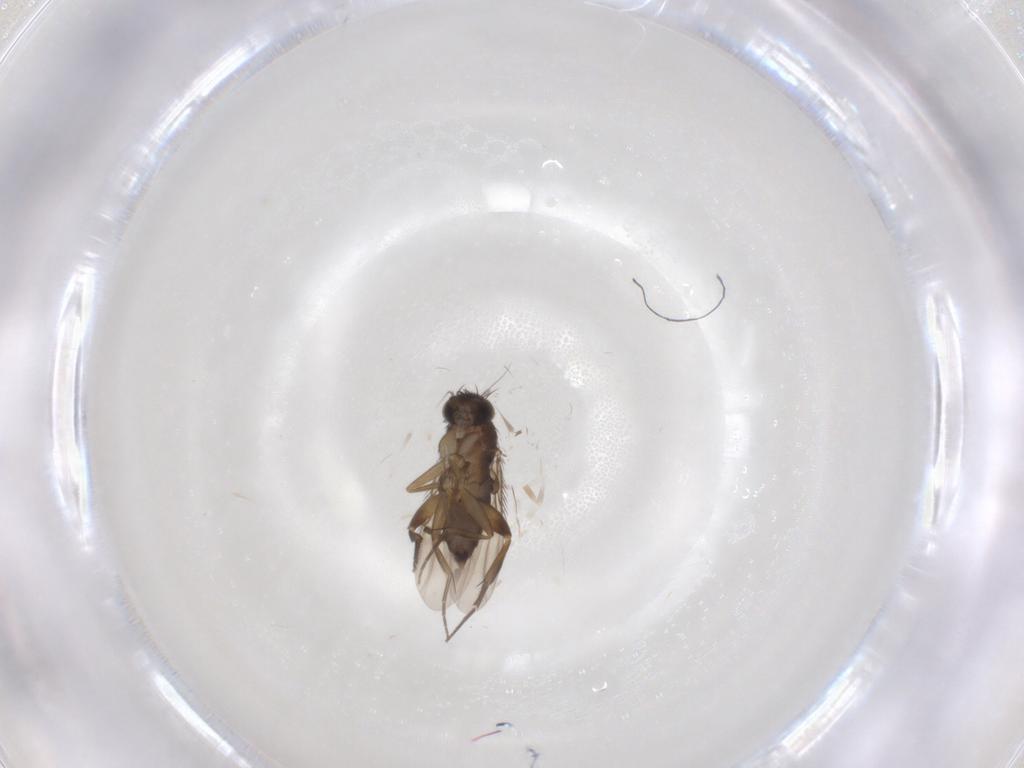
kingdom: Animalia
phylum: Arthropoda
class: Insecta
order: Diptera
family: Phoridae
